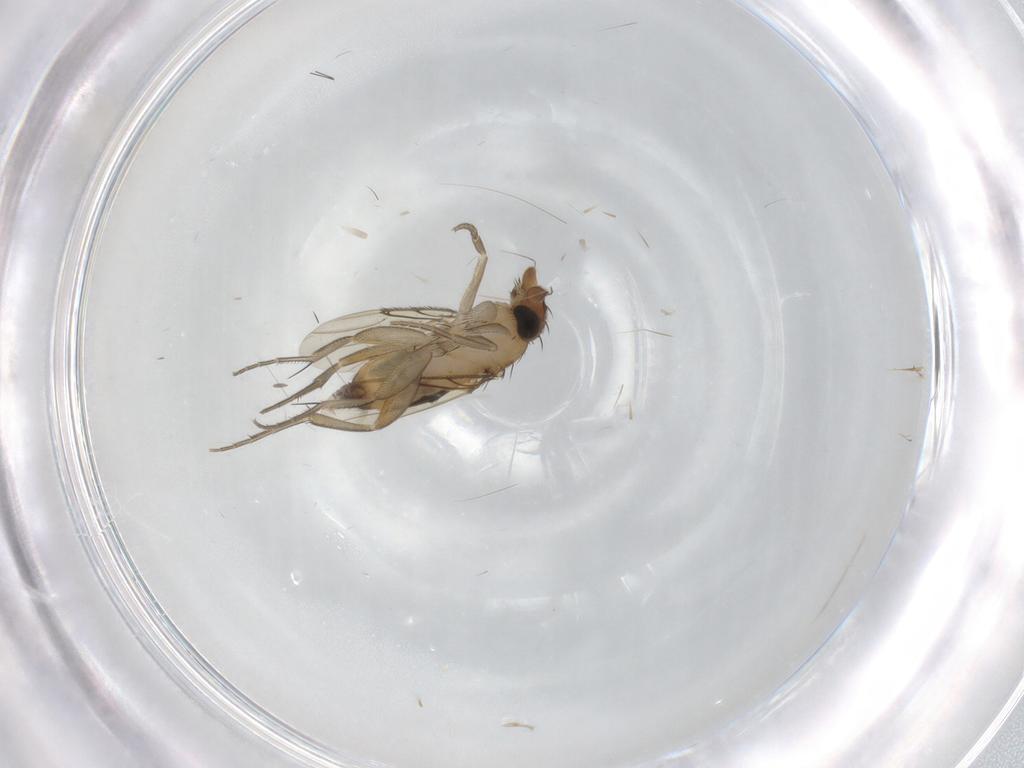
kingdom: Animalia
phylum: Arthropoda
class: Insecta
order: Diptera
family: Phoridae
